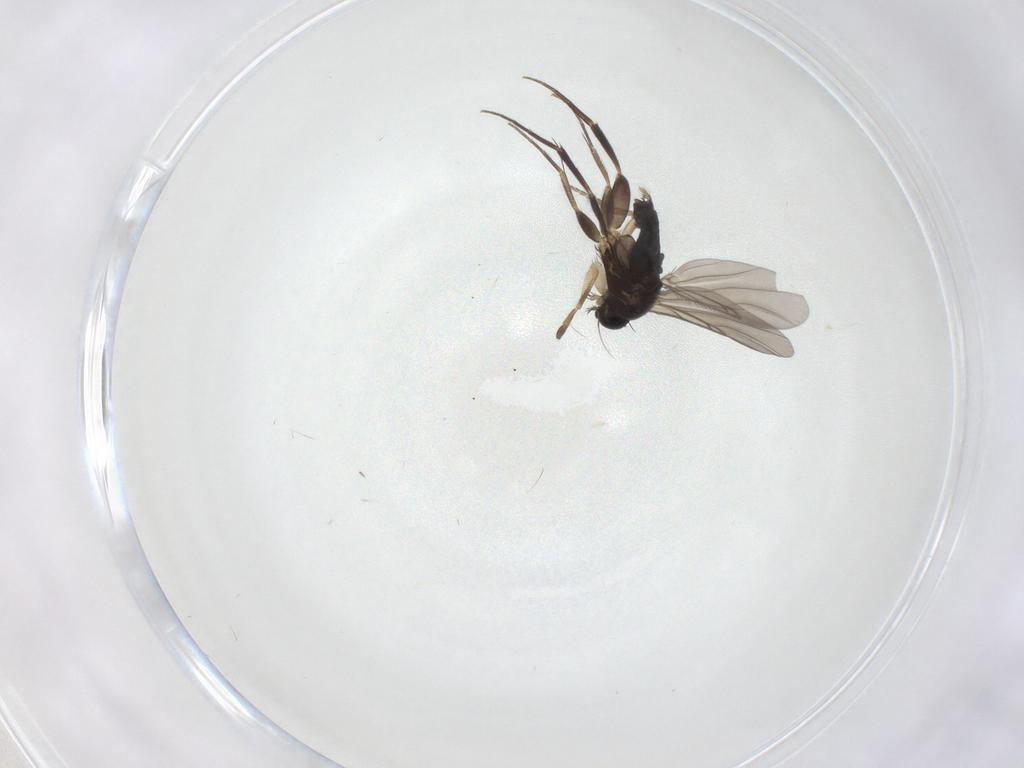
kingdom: Animalia
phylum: Arthropoda
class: Insecta
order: Diptera
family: Phoridae
